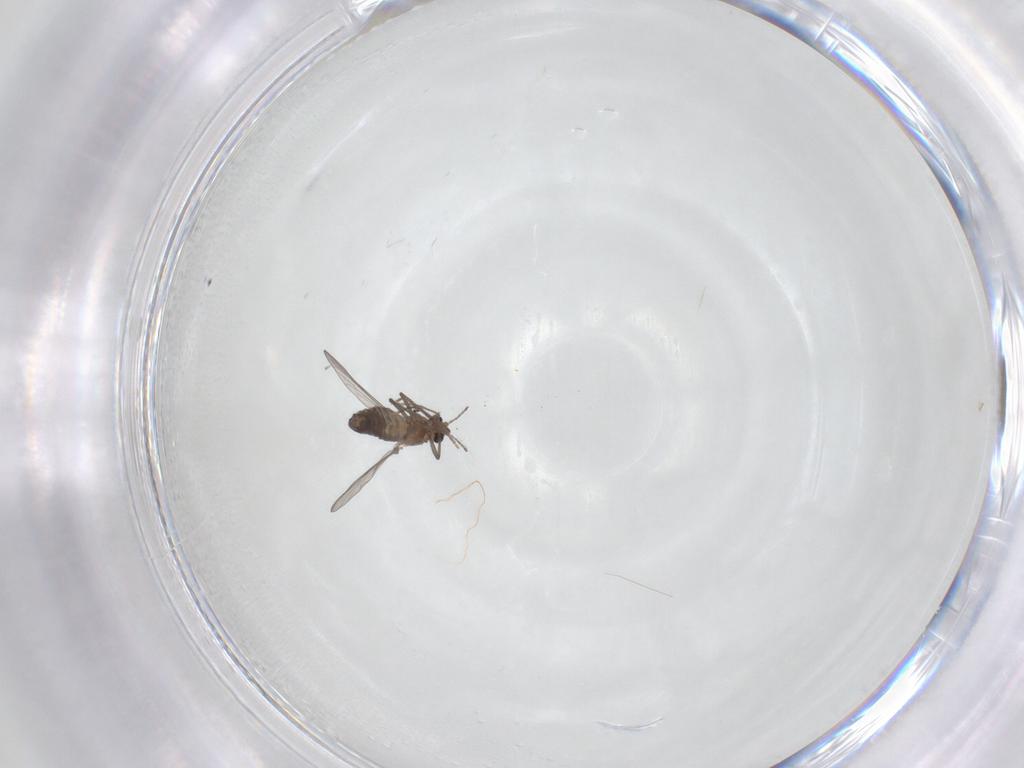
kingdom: Animalia
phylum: Arthropoda
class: Insecta
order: Diptera
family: Chironomidae
